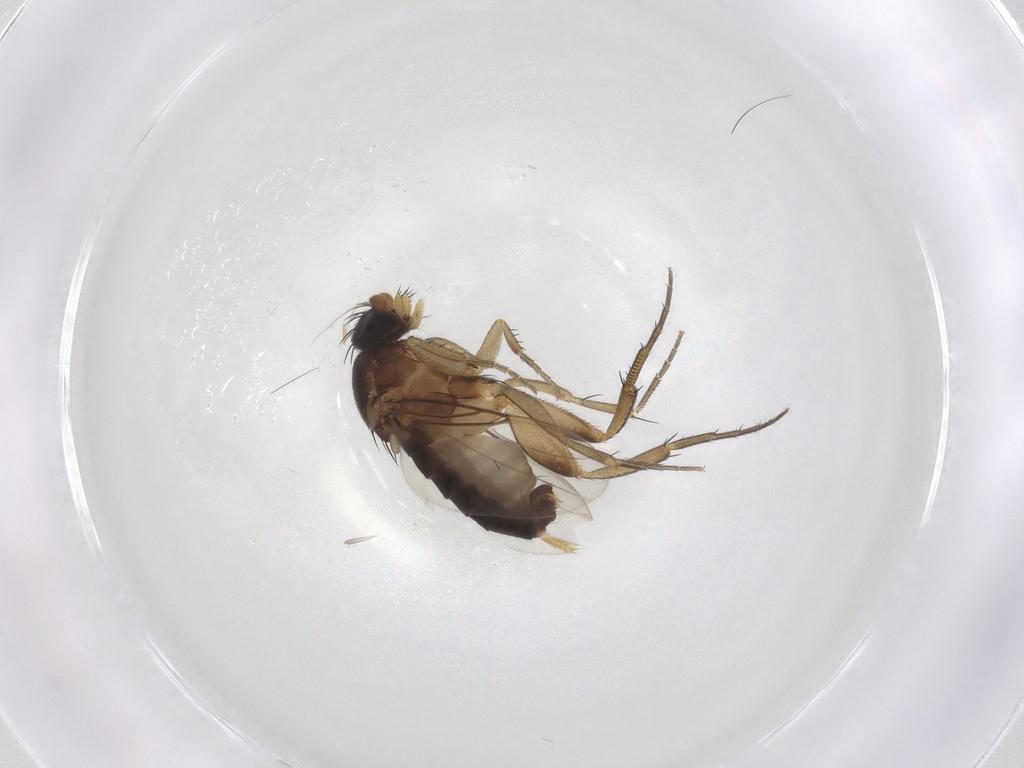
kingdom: Animalia
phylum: Arthropoda
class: Insecta
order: Diptera
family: Phoridae
